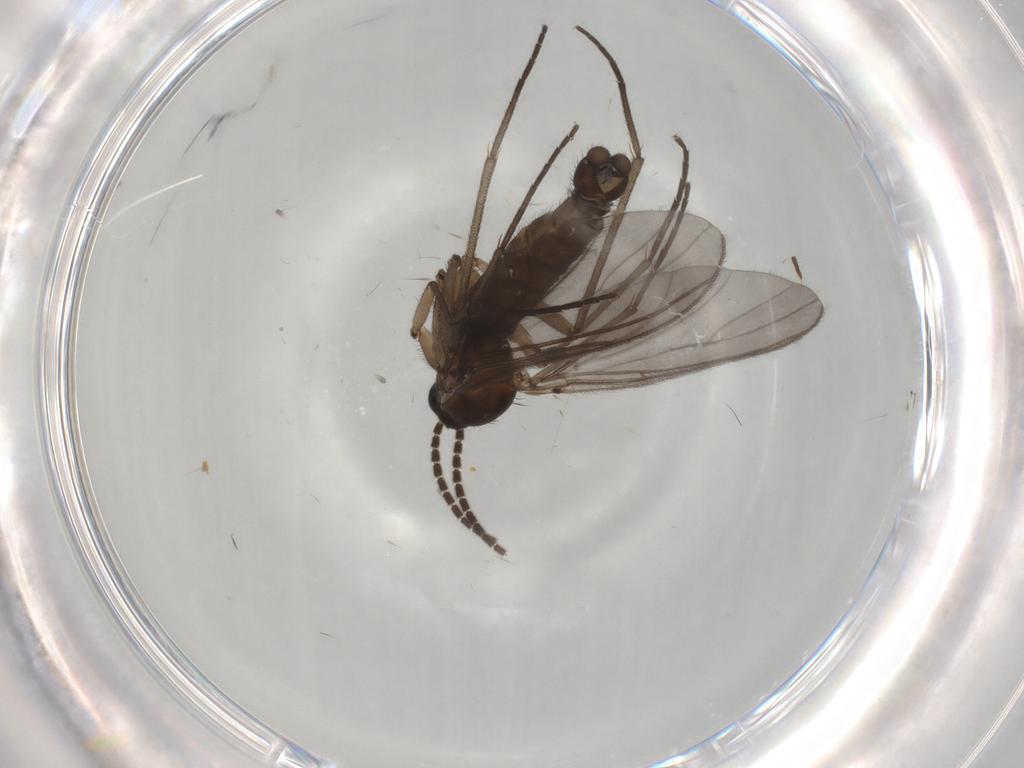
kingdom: Animalia
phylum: Arthropoda
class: Insecta
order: Diptera
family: Sciaridae
